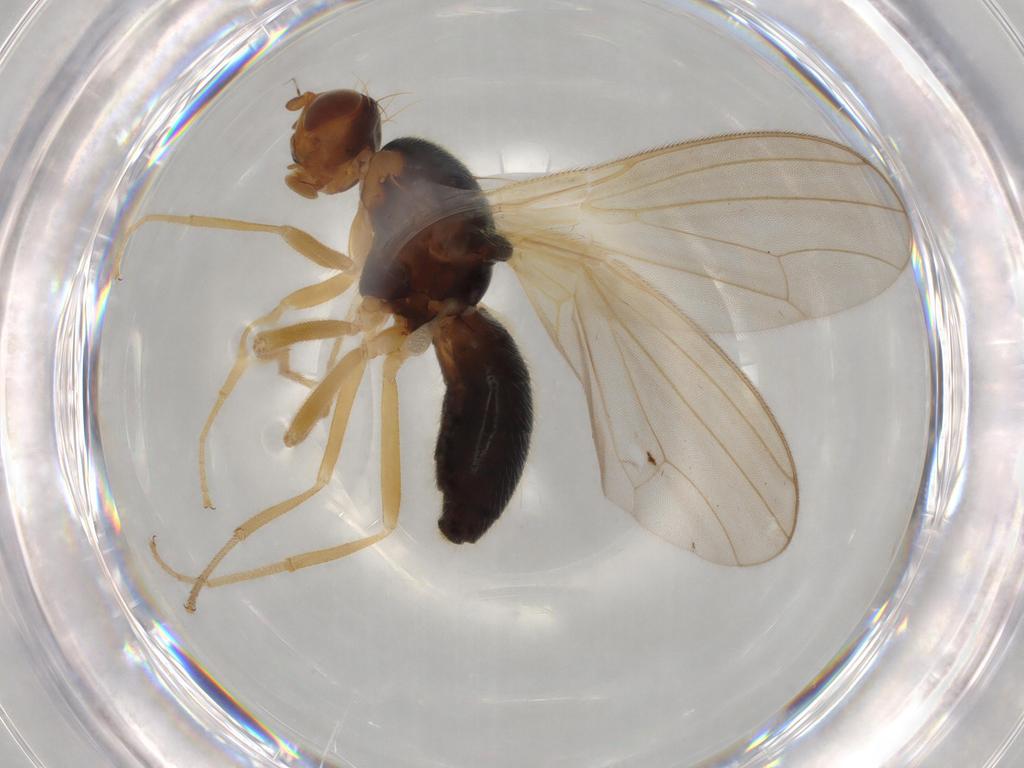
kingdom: Animalia
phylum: Arthropoda
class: Insecta
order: Diptera
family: Psilidae
